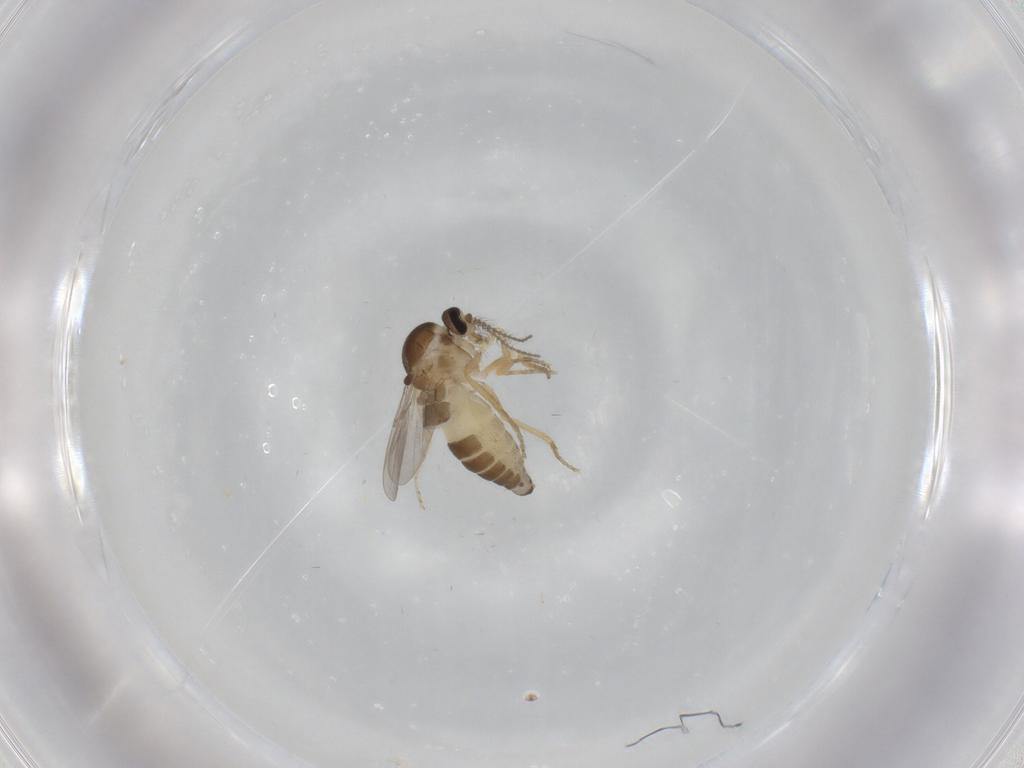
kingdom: Animalia
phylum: Arthropoda
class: Insecta
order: Diptera
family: Ceratopogonidae
